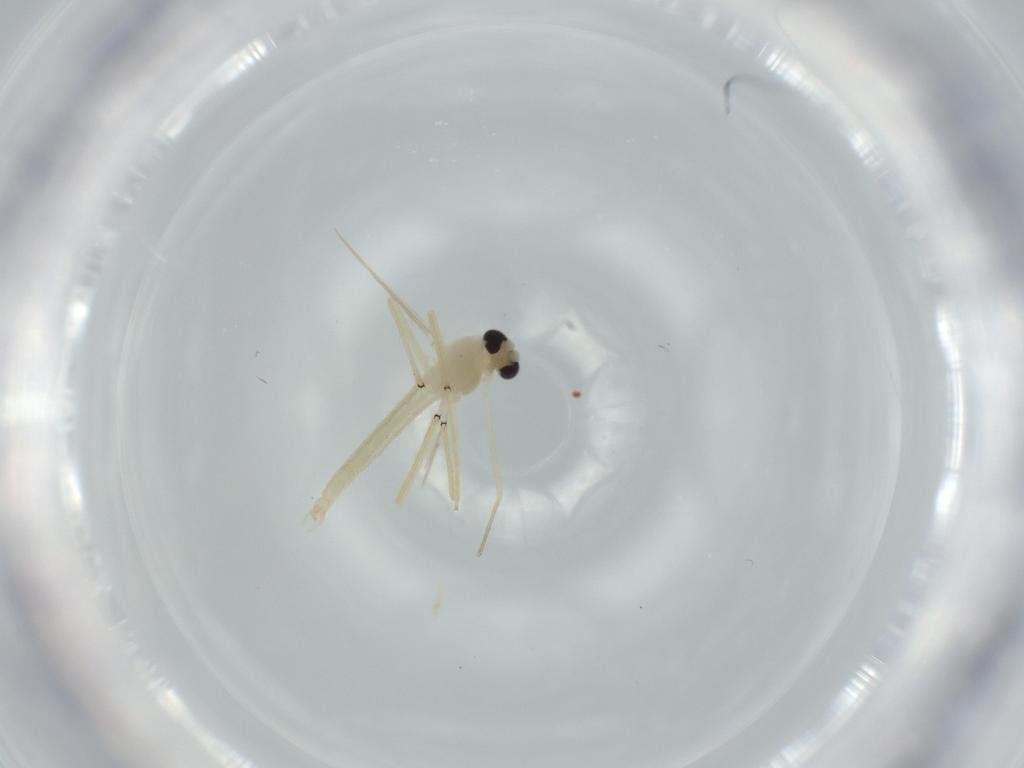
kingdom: Animalia
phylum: Arthropoda
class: Insecta
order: Diptera
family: Chironomidae
